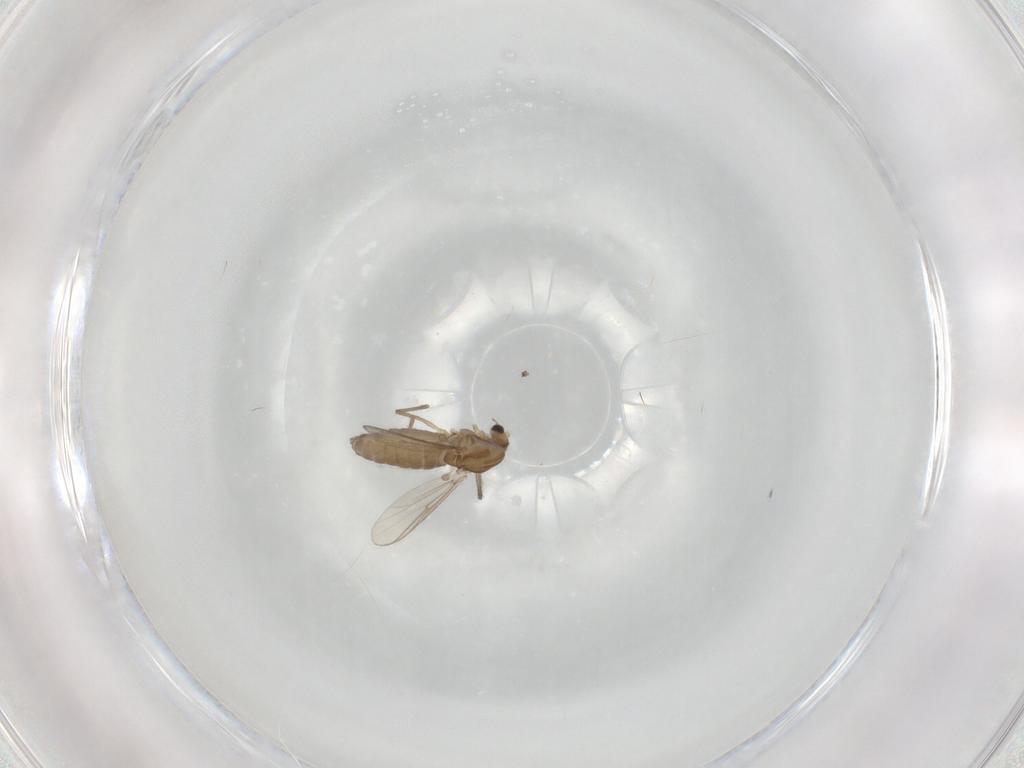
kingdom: Animalia
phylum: Arthropoda
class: Insecta
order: Diptera
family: Chironomidae
